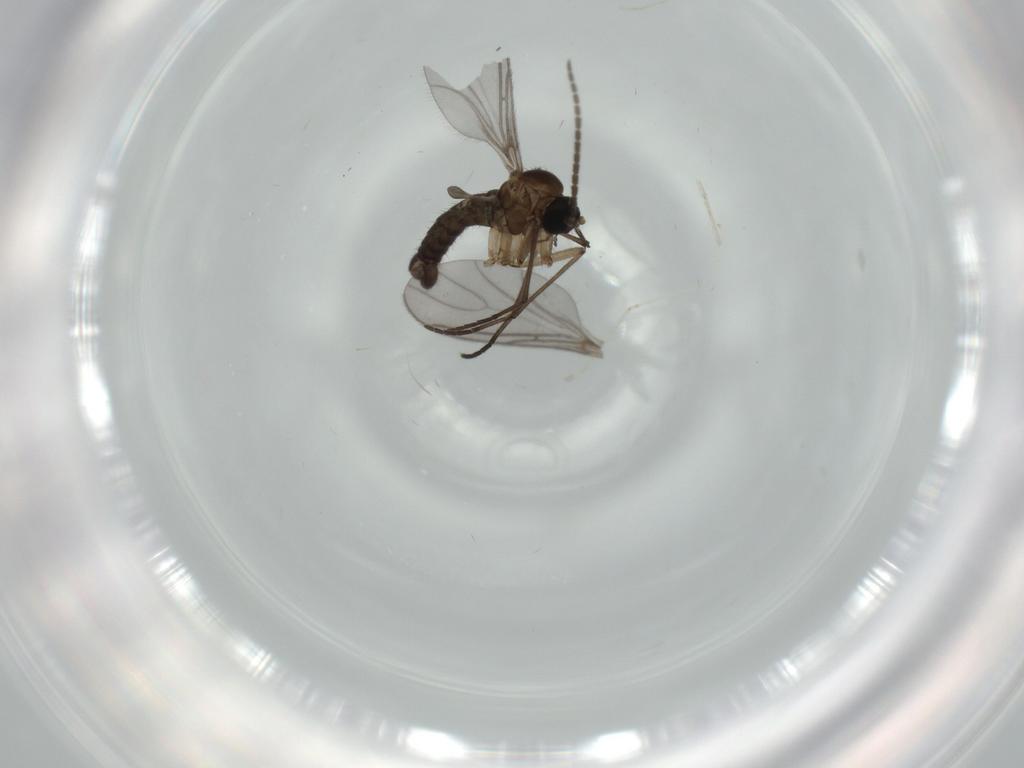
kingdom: Animalia
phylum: Arthropoda
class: Insecta
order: Diptera
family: Sciaridae
